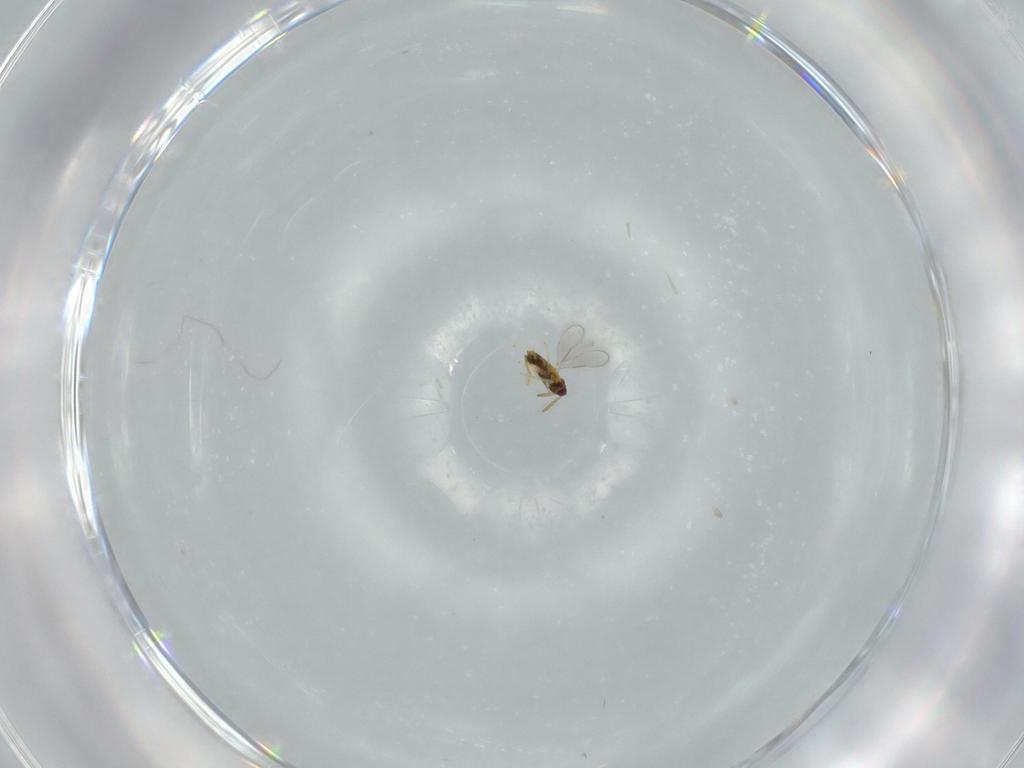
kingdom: Animalia
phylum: Arthropoda
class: Insecta
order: Hymenoptera
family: Aphelinidae
